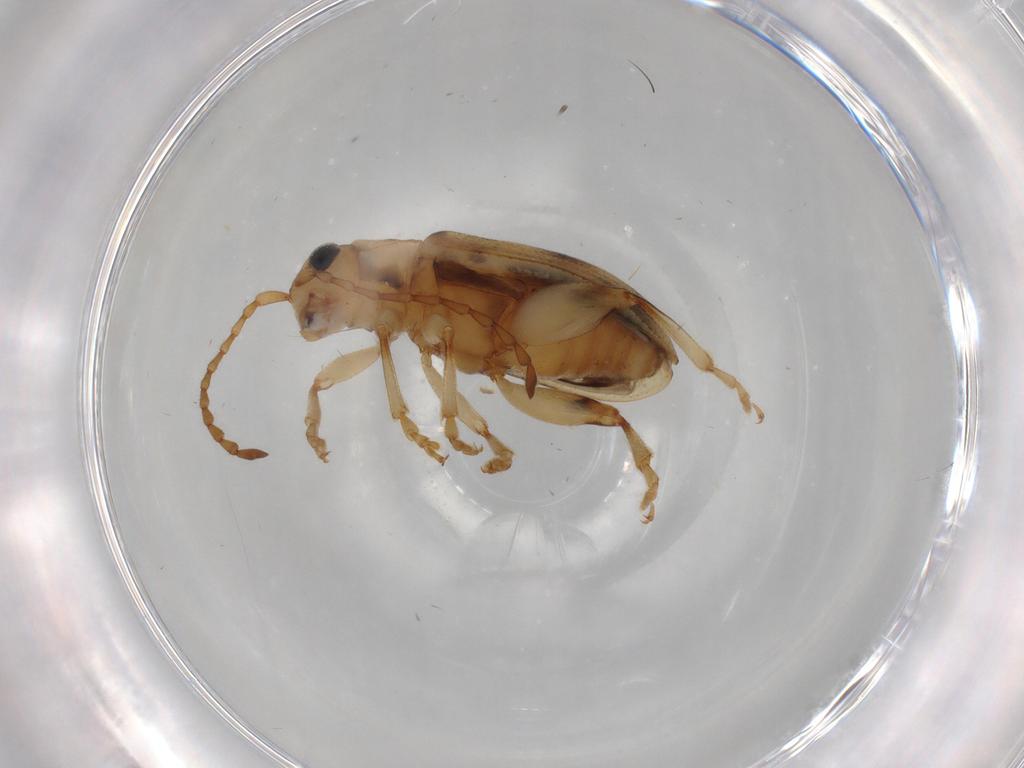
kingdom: Animalia
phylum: Arthropoda
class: Insecta
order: Coleoptera
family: Chrysomelidae
